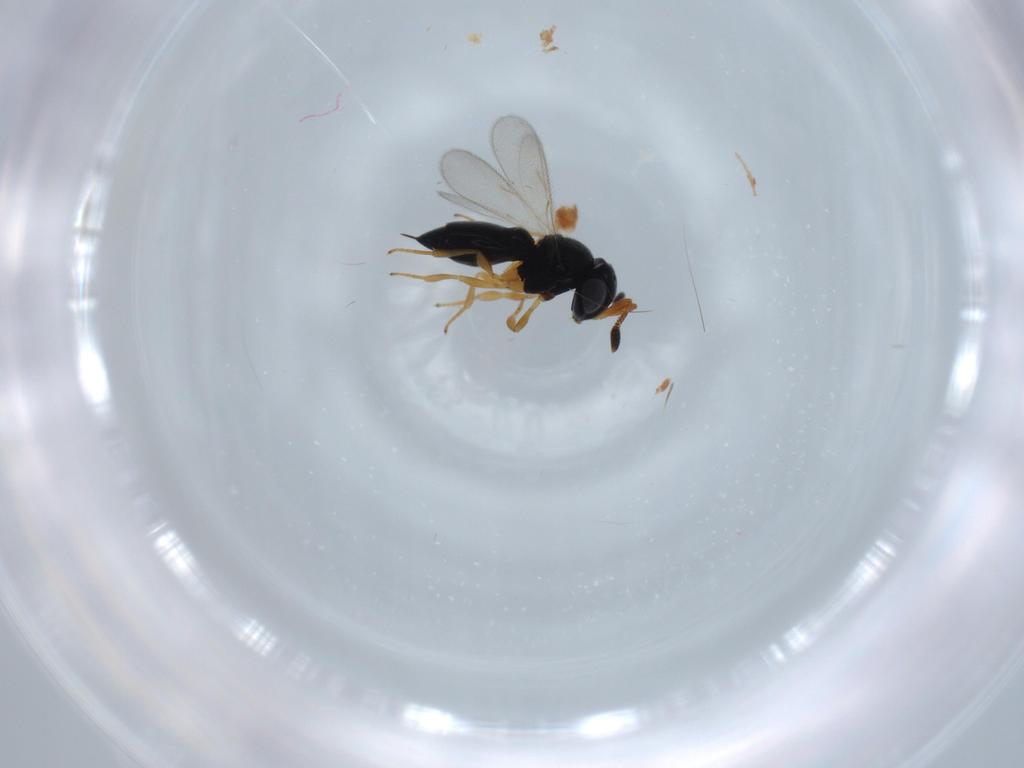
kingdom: Animalia
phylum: Arthropoda
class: Insecta
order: Hymenoptera
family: Scelionidae
